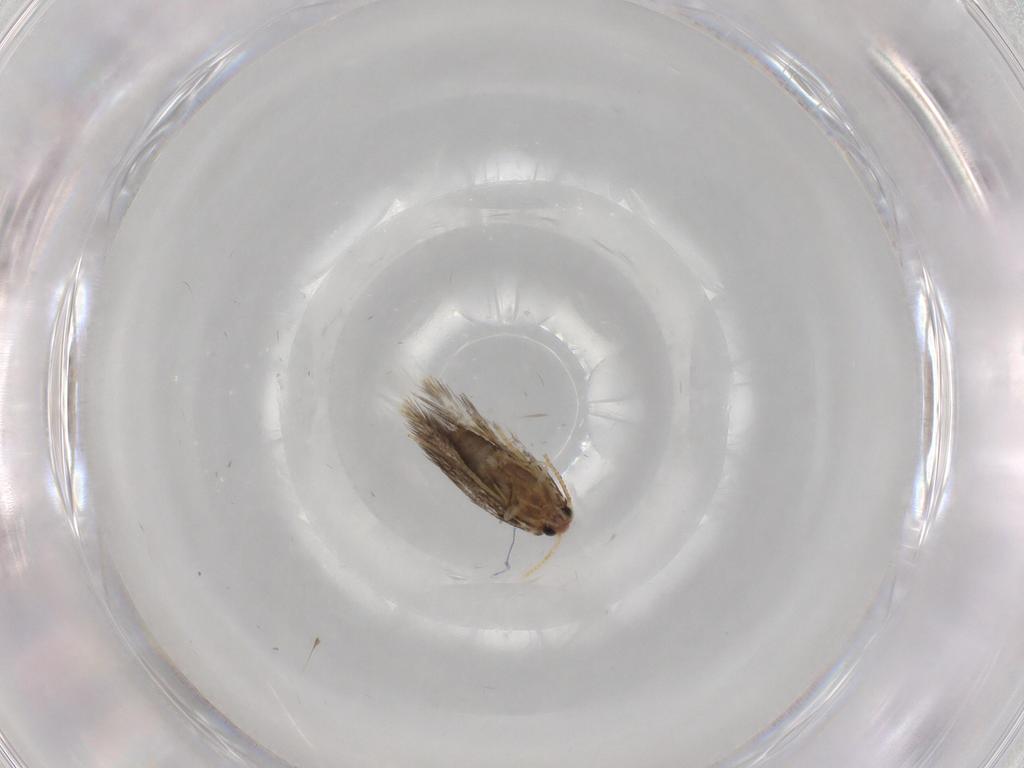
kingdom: Animalia
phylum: Arthropoda
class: Insecta
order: Lepidoptera
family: Copromorphidae
